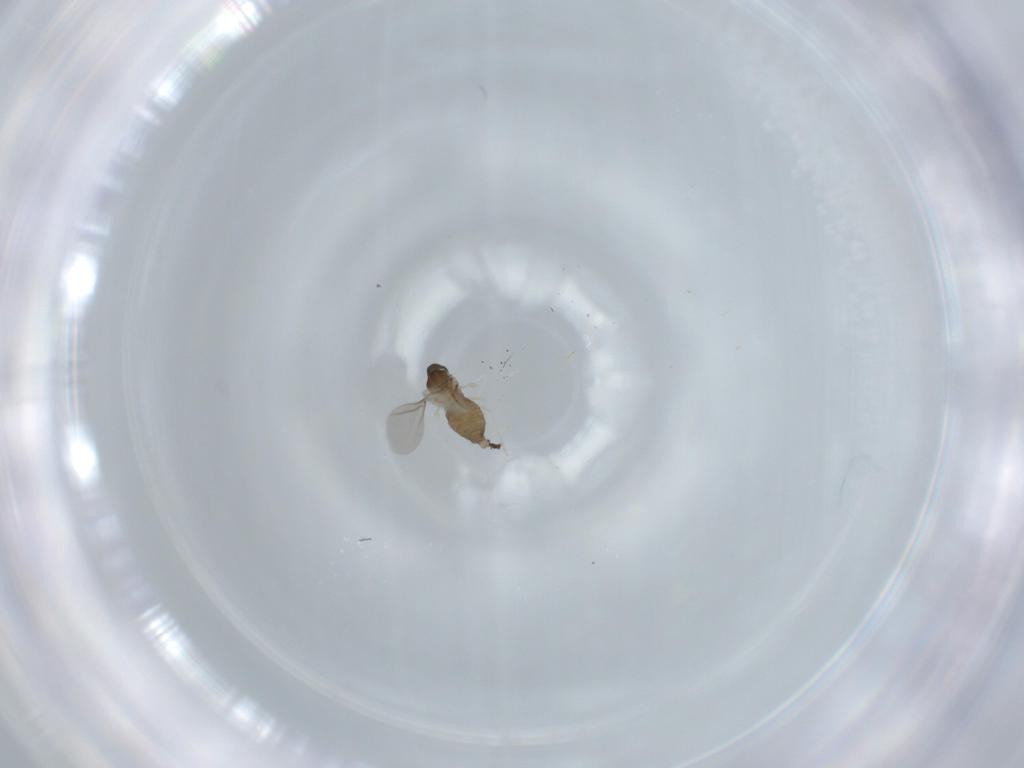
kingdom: Animalia
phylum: Arthropoda
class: Insecta
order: Diptera
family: Cecidomyiidae
